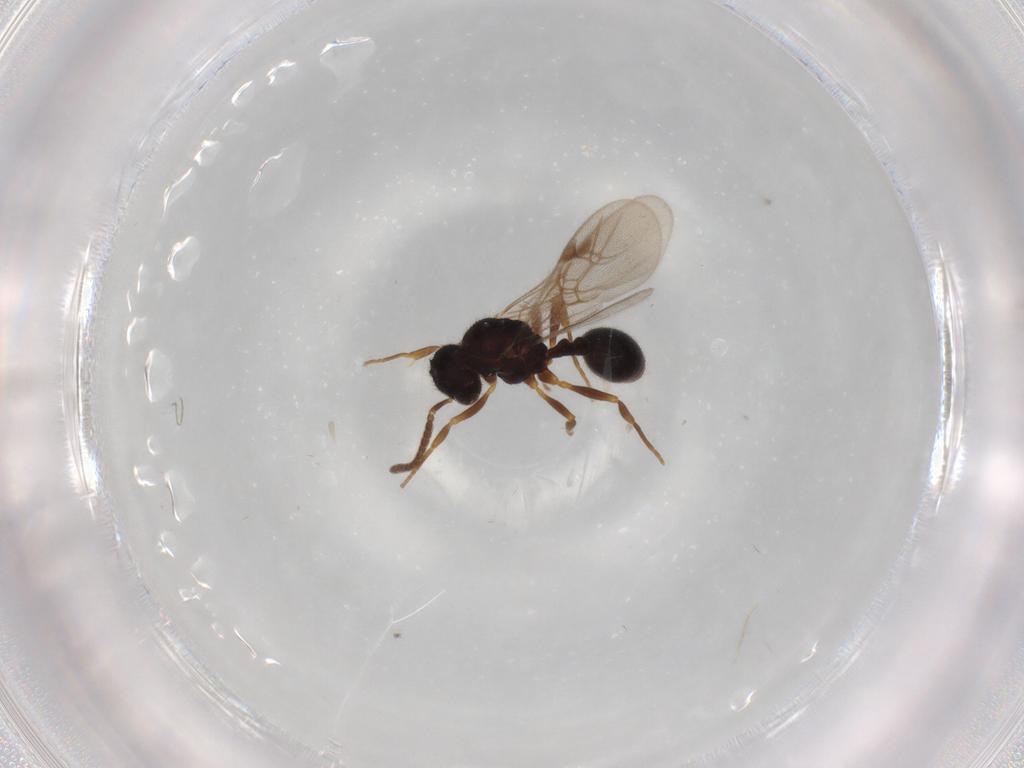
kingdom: Animalia
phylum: Arthropoda
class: Insecta
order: Hymenoptera
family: Formicidae
